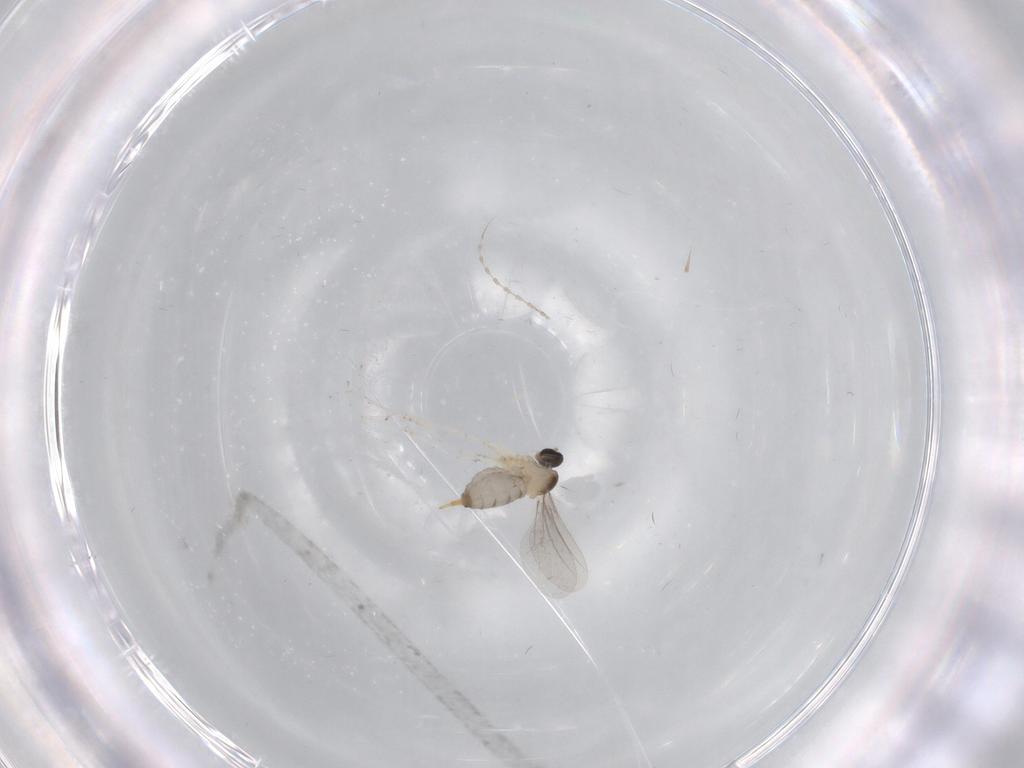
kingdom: Animalia
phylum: Arthropoda
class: Insecta
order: Diptera
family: Cecidomyiidae
